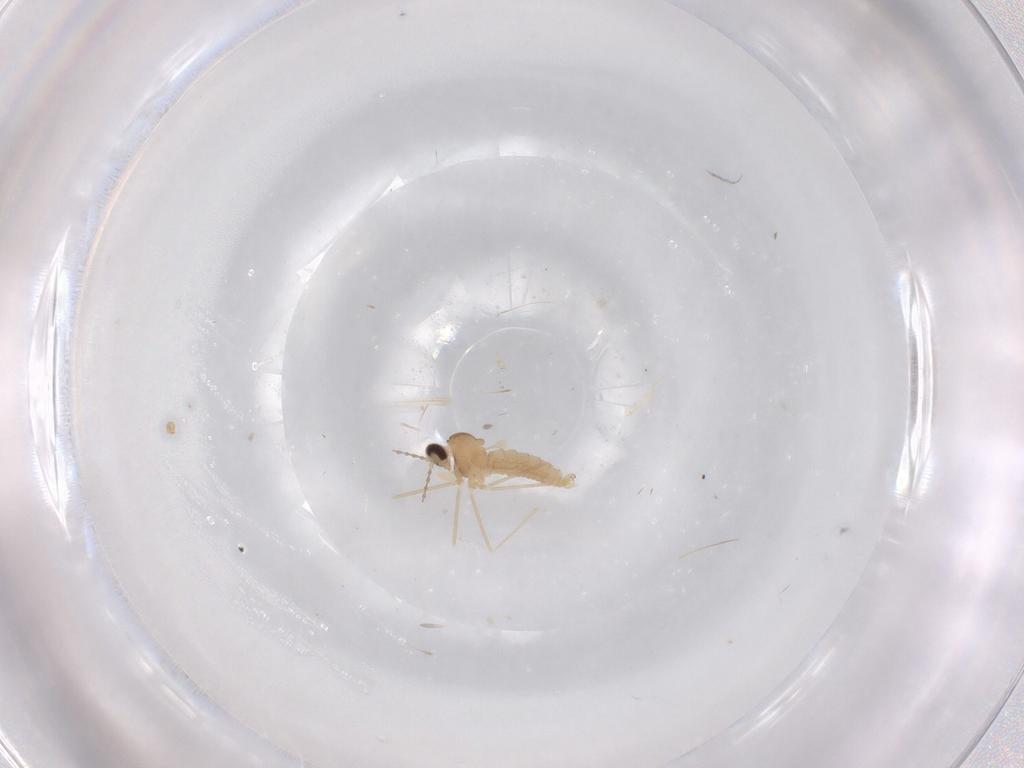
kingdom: Animalia
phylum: Arthropoda
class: Insecta
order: Diptera
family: Cecidomyiidae
